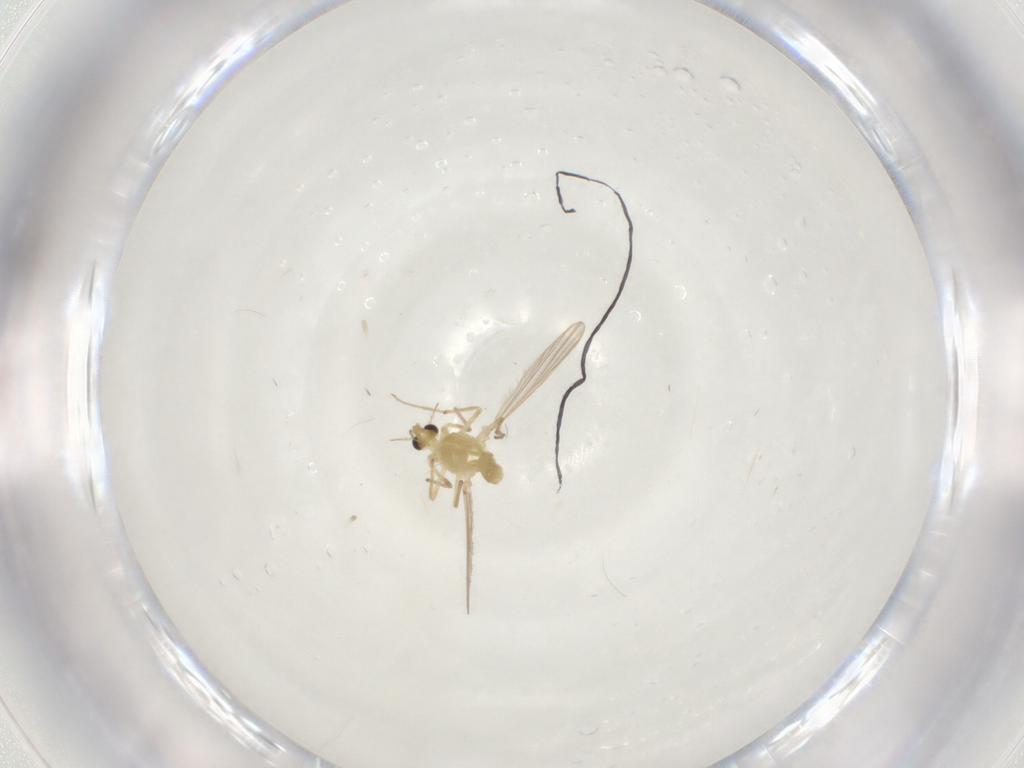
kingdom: Animalia
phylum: Arthropoda
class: Insecta
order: Diptera
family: Chironomidae
